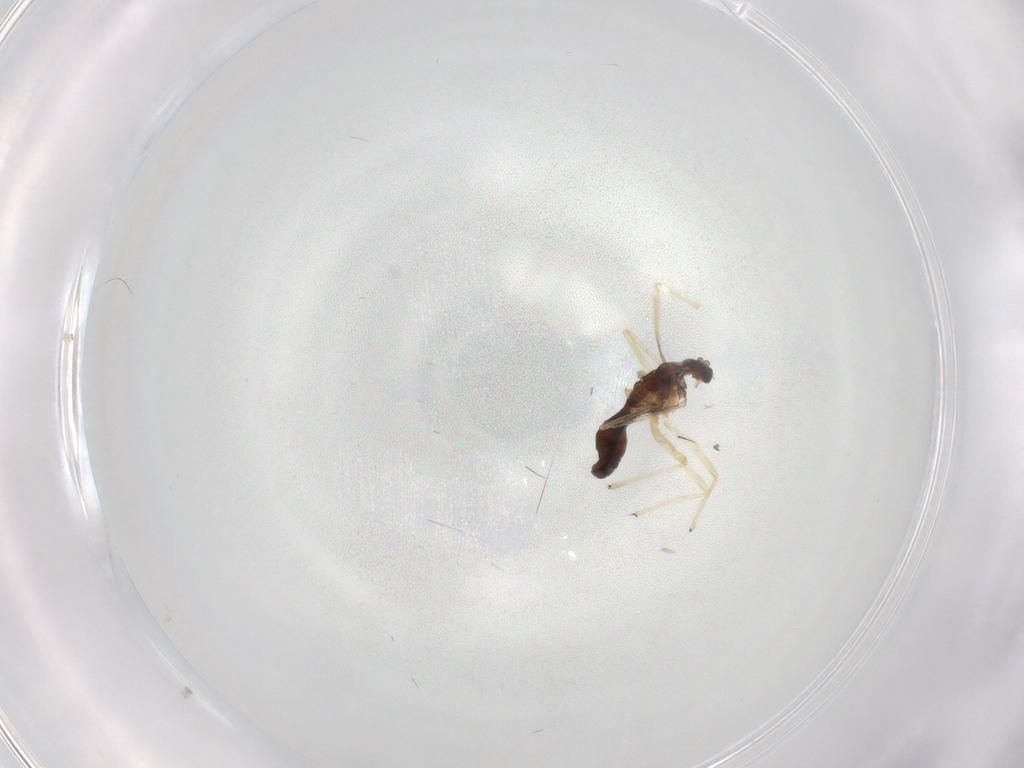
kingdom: Animalia
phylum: Arthropoda
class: Insecta
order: Diptera
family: Chironomidae
